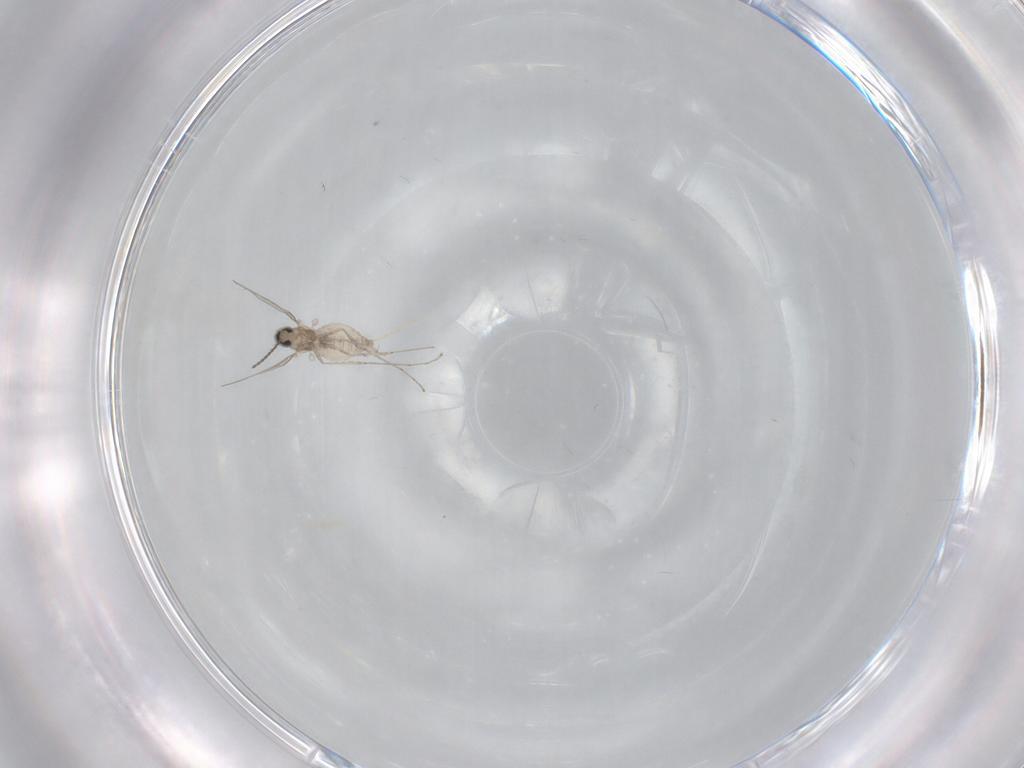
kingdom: Animalia
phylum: Arthropoda
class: Insecta
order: Diptera
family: Cecidomyiidae
